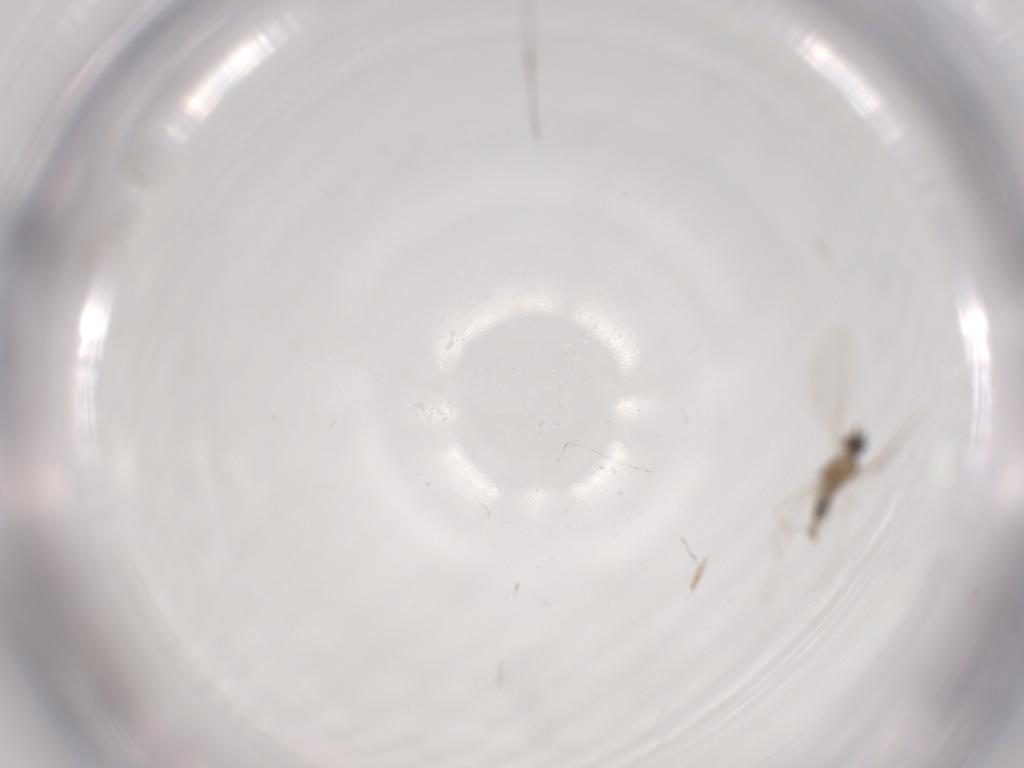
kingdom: Animalia
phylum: Arthropoda
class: Insecta
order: Diptera
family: Cecidomyiidae
